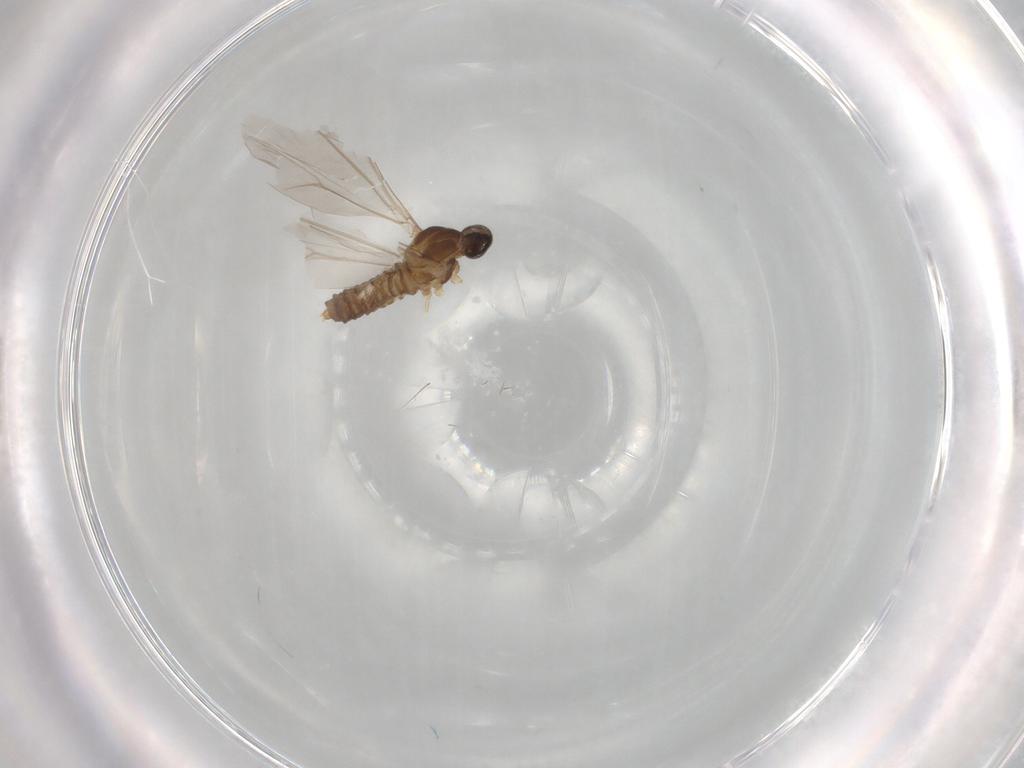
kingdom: Animalia
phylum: Arthropoda
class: Insecta
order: Diptera
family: Cecidomyiidae
